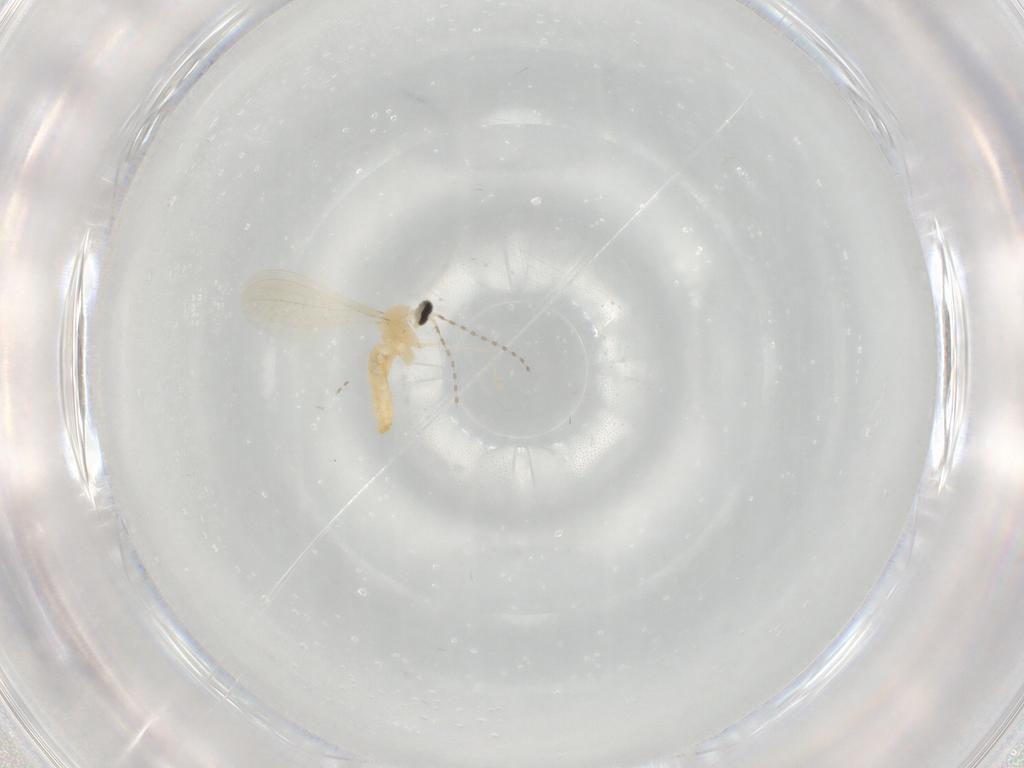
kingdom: Animalia
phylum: Arthropoda
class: Insecta
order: Diptera
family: Cecidomyiidae
